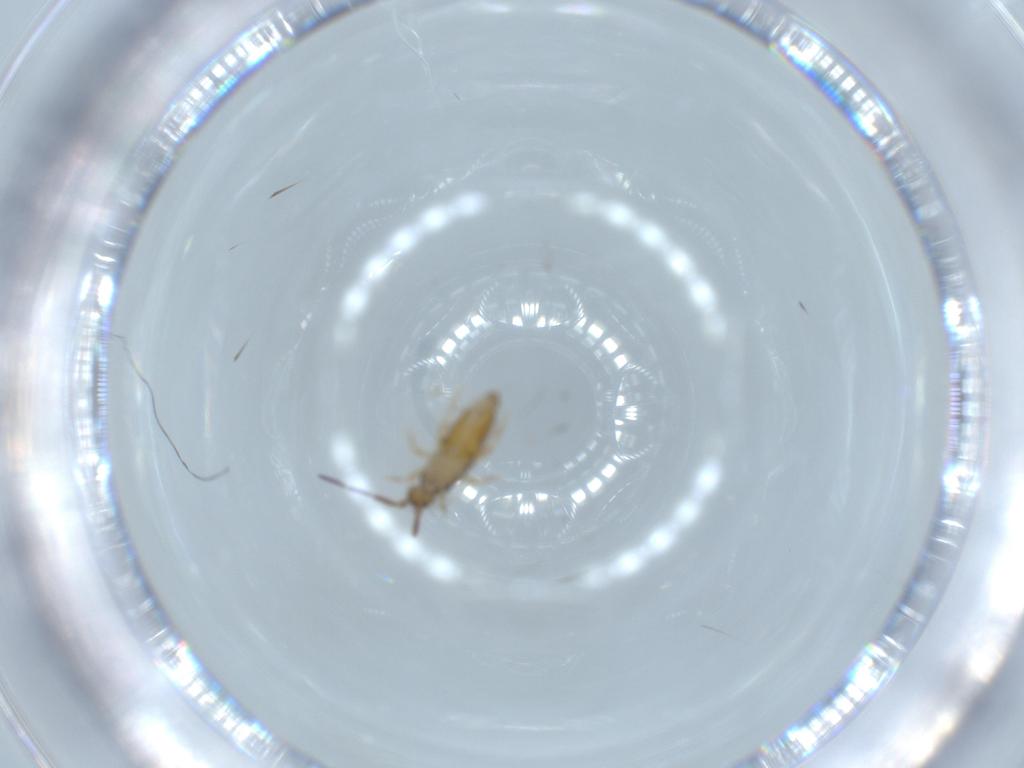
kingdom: Animalia
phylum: Arthropoda
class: Collembola
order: Entomobryomorpha
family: Entomobryidae
